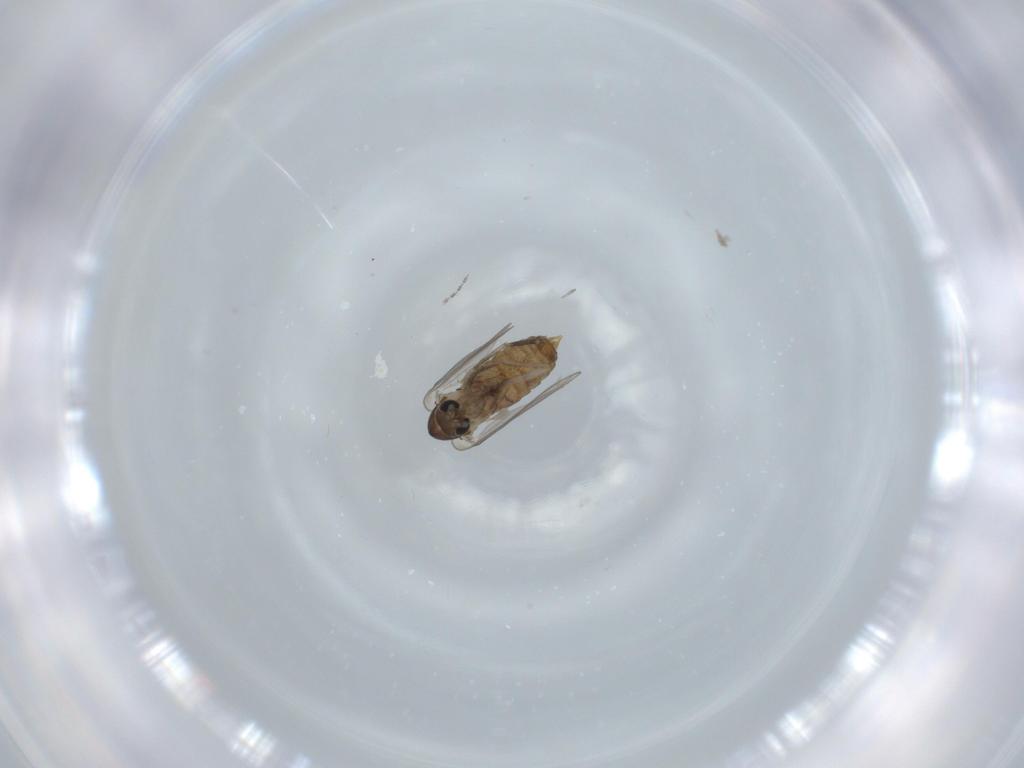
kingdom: Animalia
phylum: Arthropoda
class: Insecta
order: Diptera
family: Psychodidae
